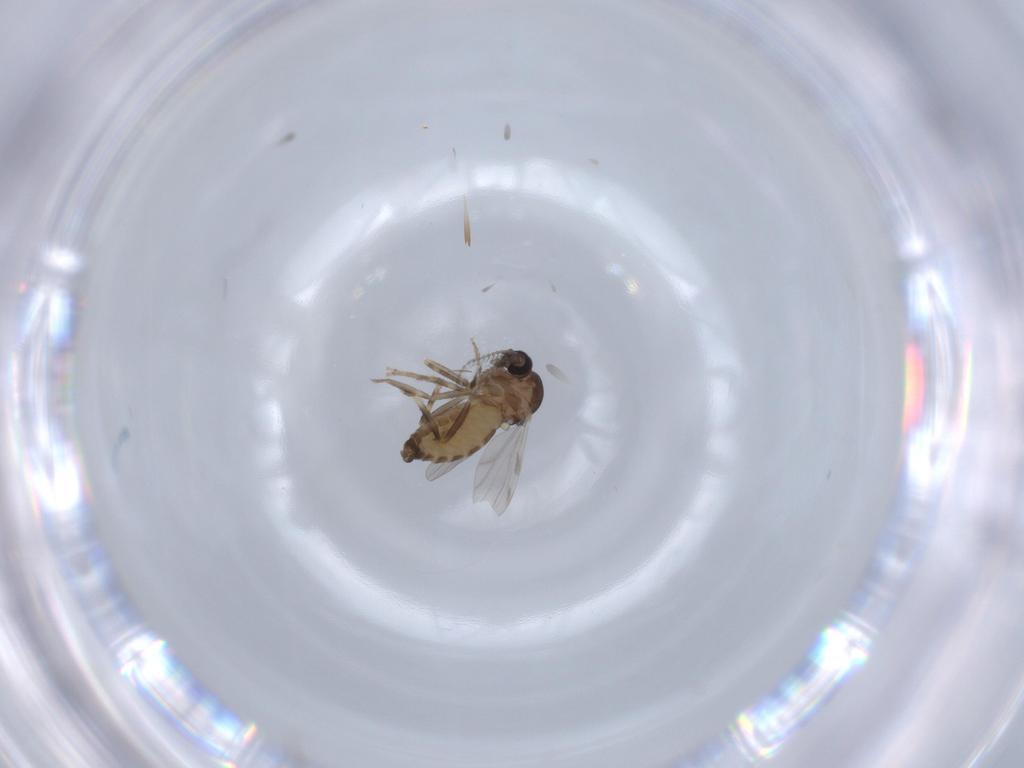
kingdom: Animalia
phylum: Arthropoda
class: Insecta
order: Diptera
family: Ceratopogonidae
